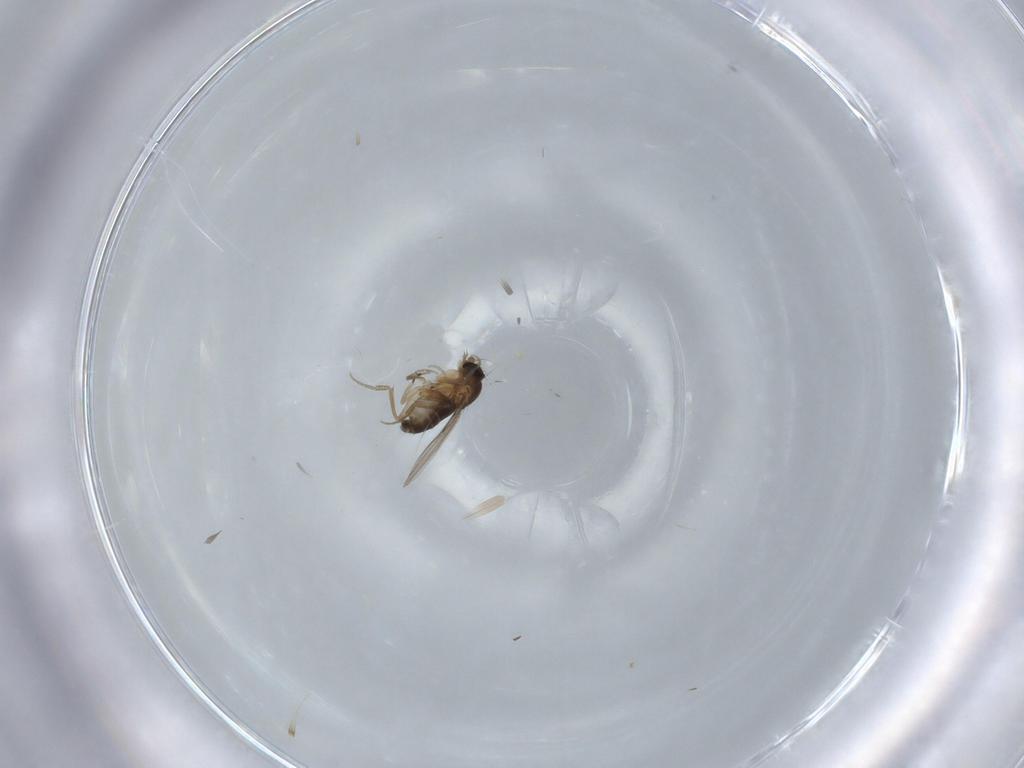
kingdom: Animalia
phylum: Arthropoda
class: Insecta
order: Diptera
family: Phoridae
